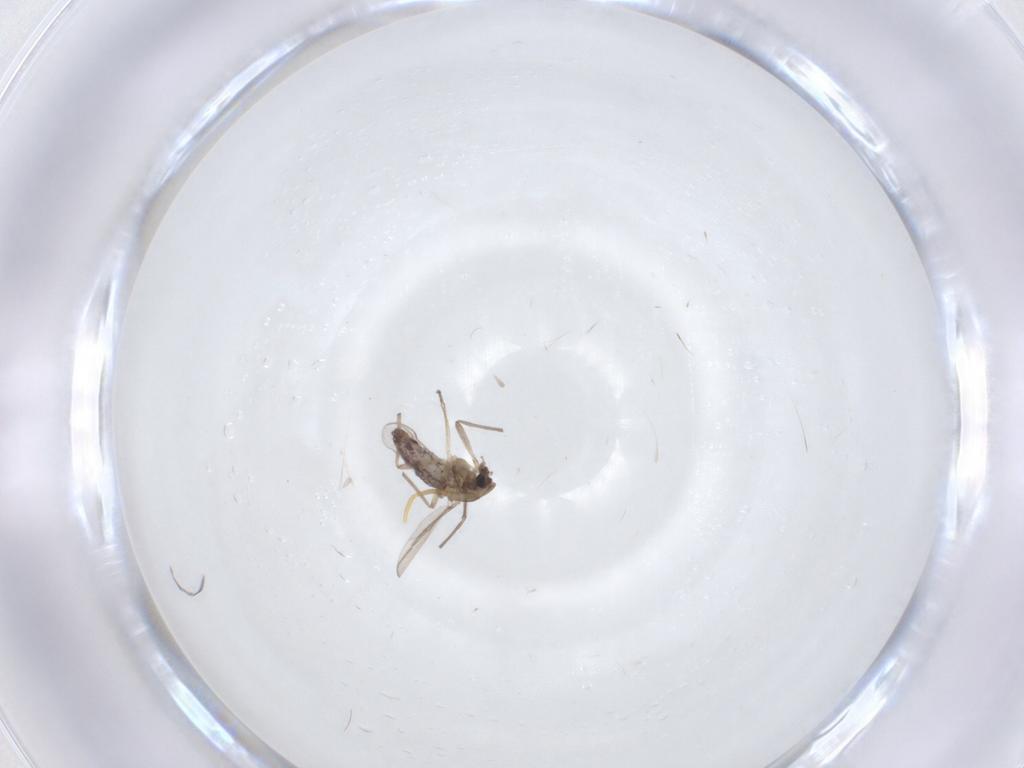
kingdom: Animalia
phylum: Arthropoda
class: Insecta
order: Diptera
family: Chironomidae
